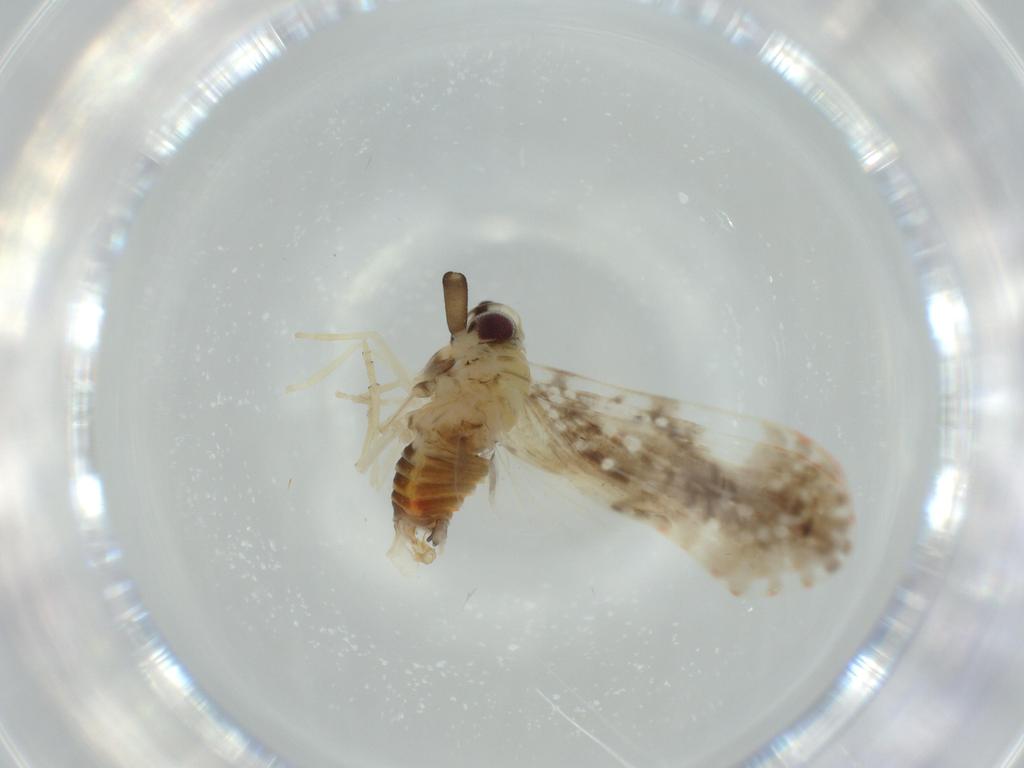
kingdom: Animalia
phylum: Arthropoda
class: Insecta
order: Hemiptera
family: Derbidae
